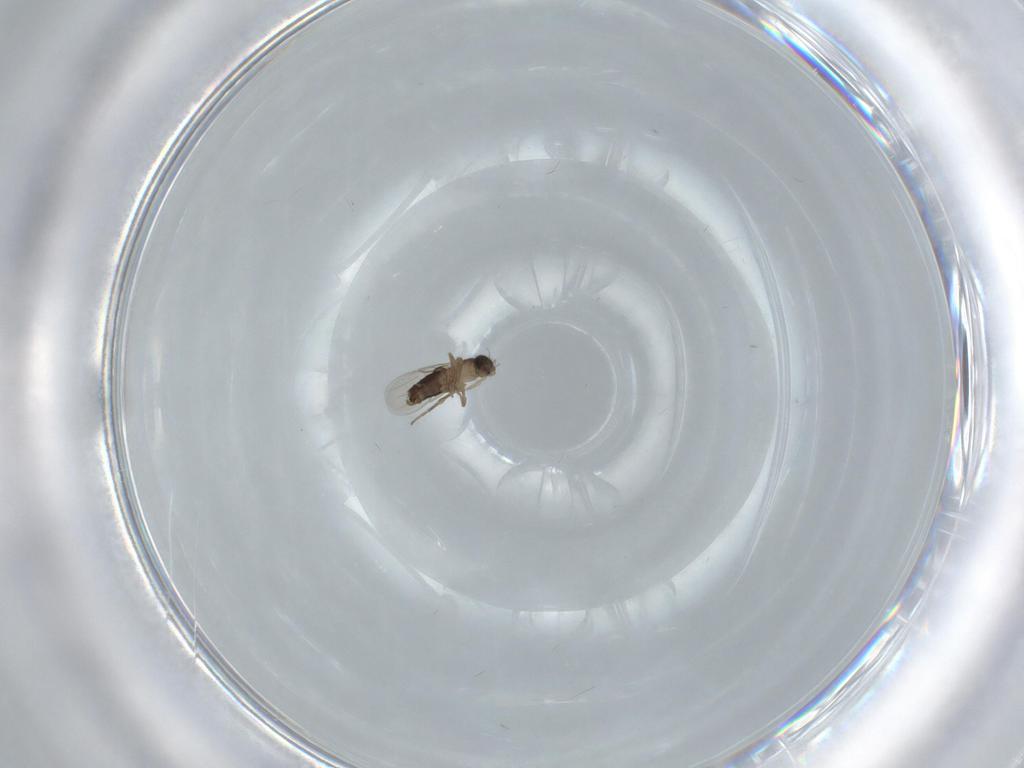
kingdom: Animalia
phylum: Arthropoda
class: Insecta
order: Diptera
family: Phoridae
